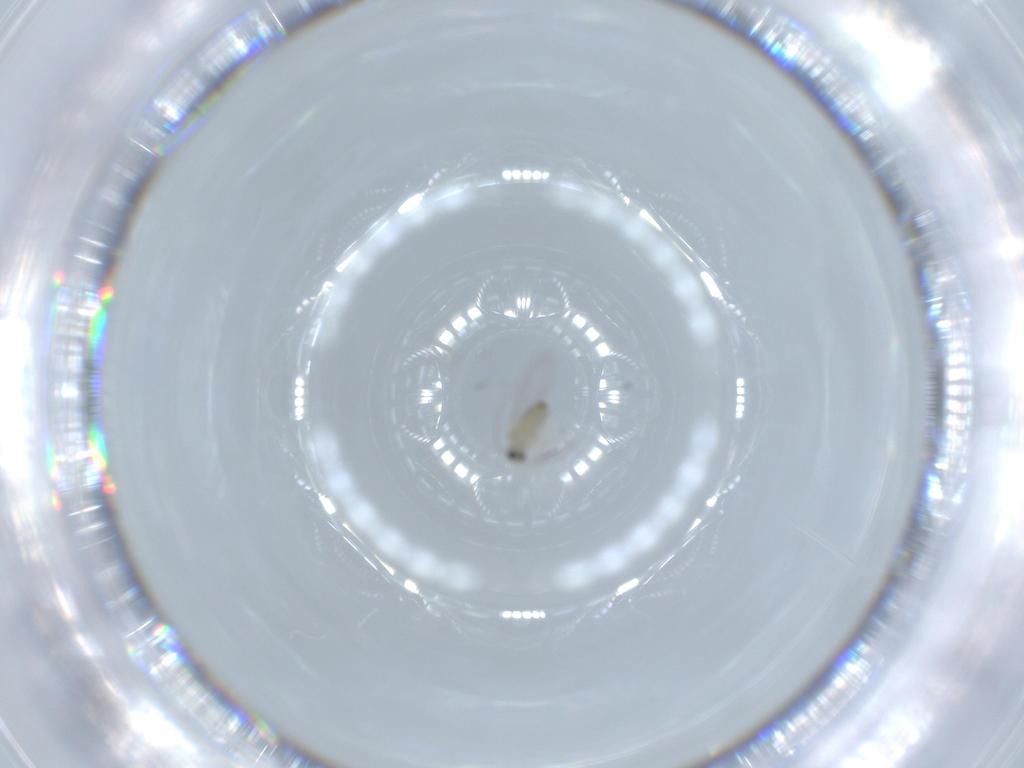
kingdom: Animalia
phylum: Arthropoda
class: Insecta
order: Diptera
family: Cecidomyiidae
